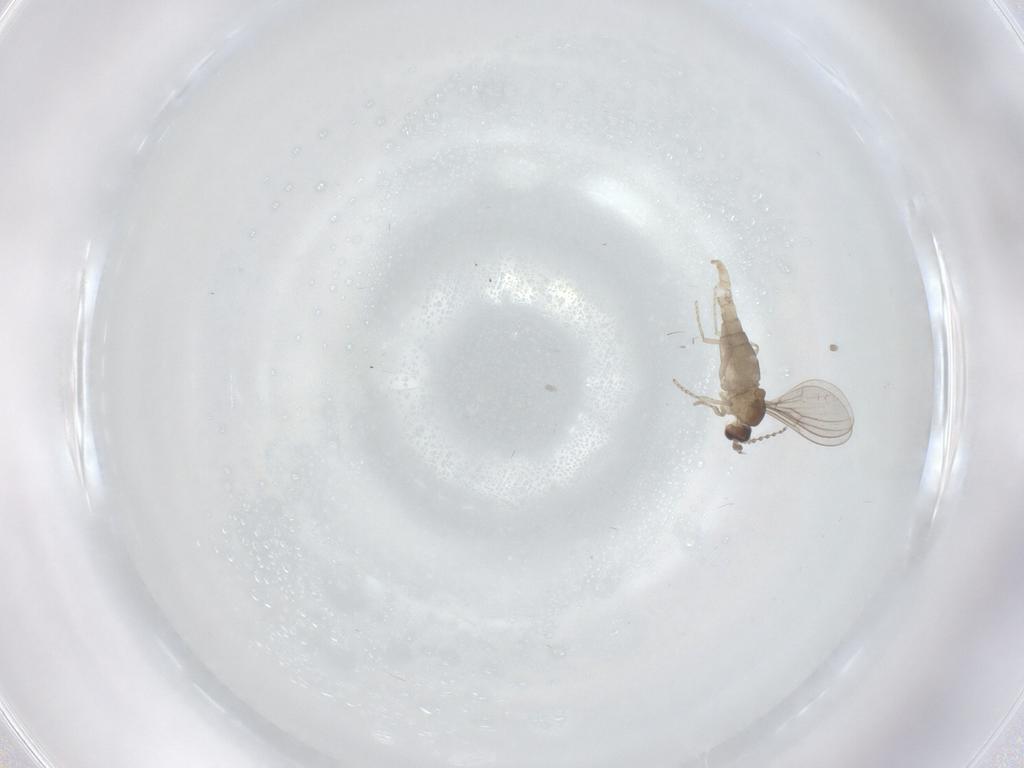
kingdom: Animalia
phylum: Arthropoda
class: Insecta
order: Diptera
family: Cecidomyiidae
